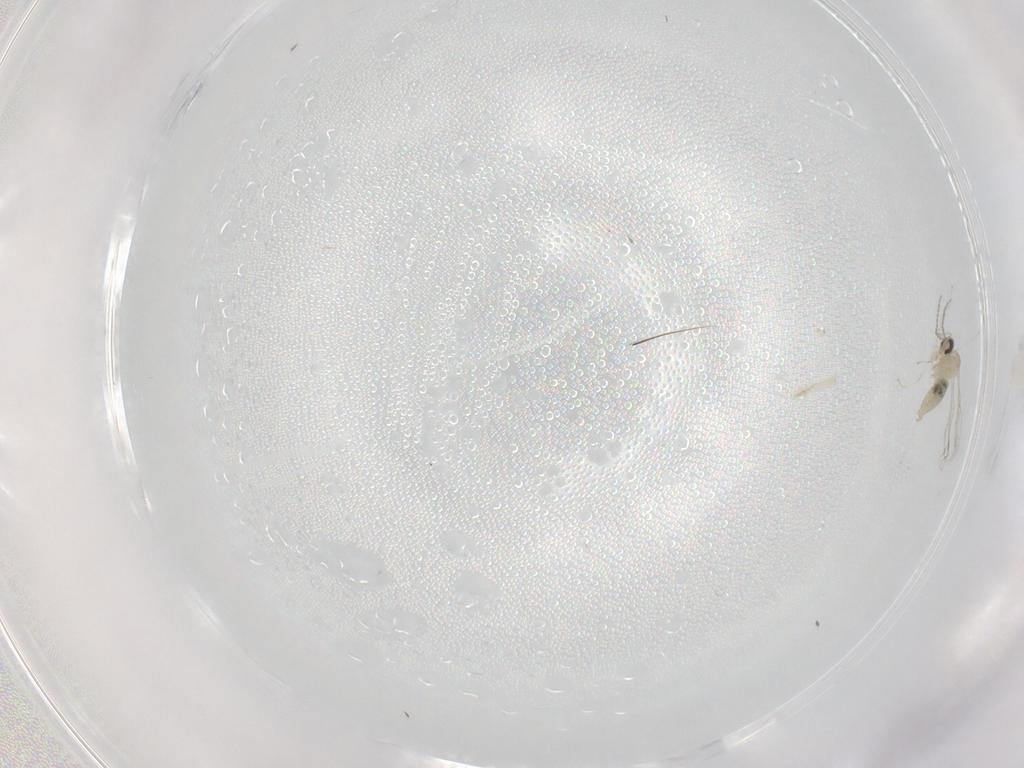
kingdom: Animalia
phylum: Arthropoda
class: Insecta
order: Diptera
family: Cecidomyiidae
